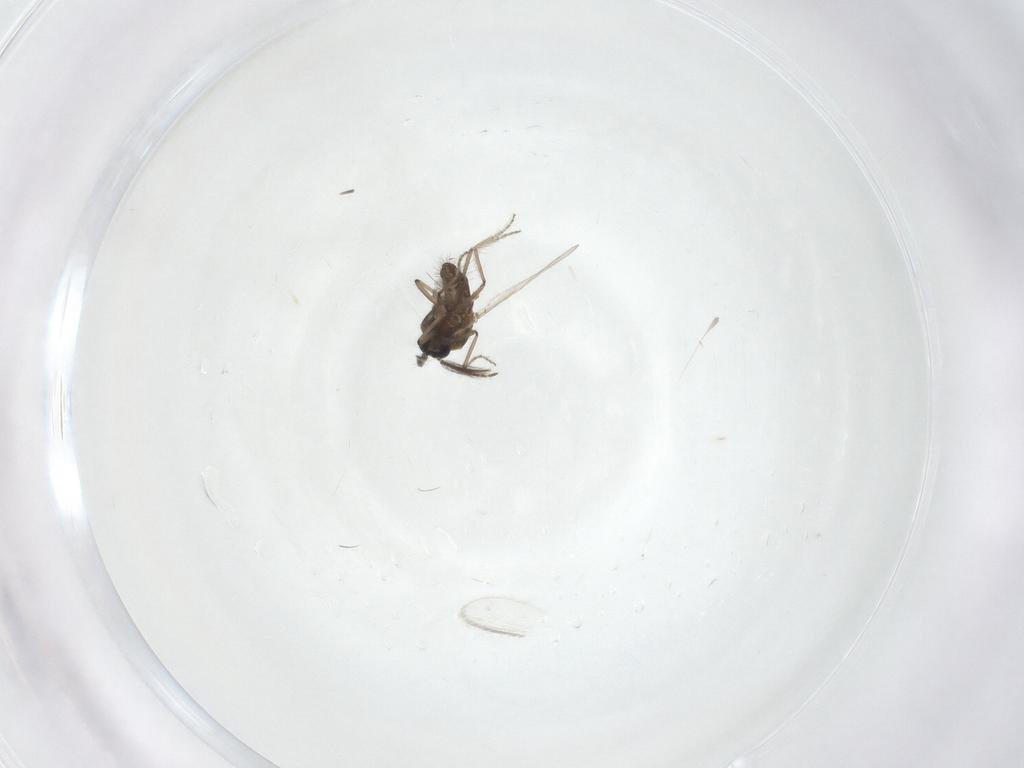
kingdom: Animalia
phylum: Arthropoda
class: Insecta
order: Diptera
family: Ceratopogonidae
